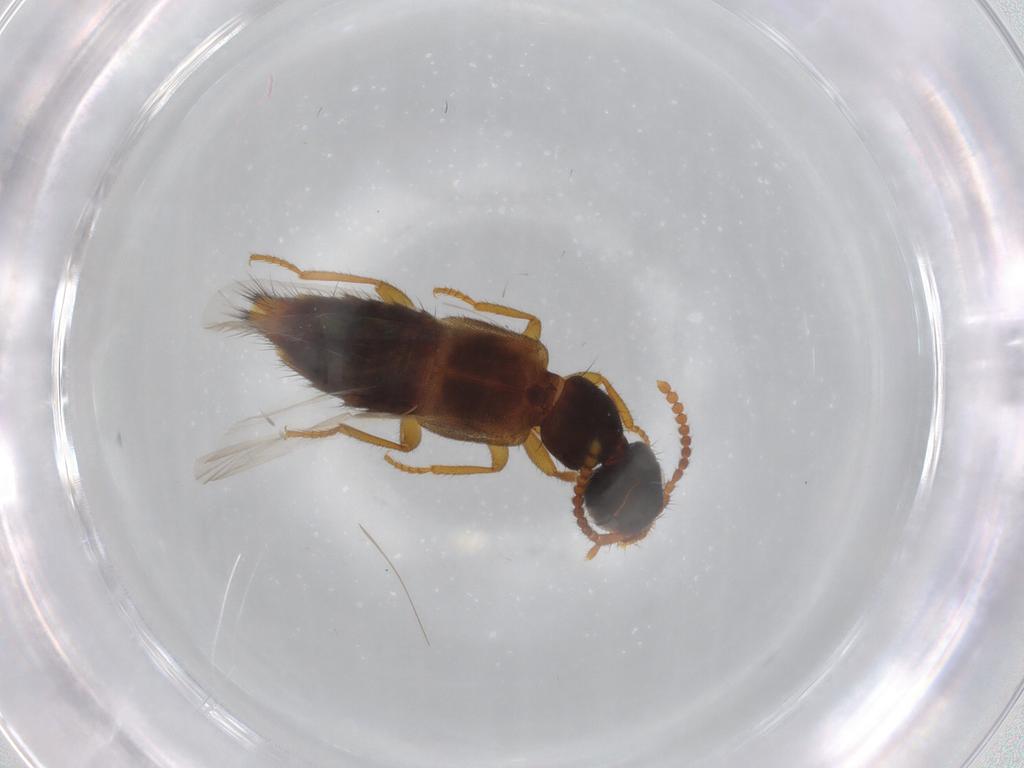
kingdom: Animalia
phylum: Arthropoda
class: Insecta
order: Coleoptera
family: Staphylinidae
